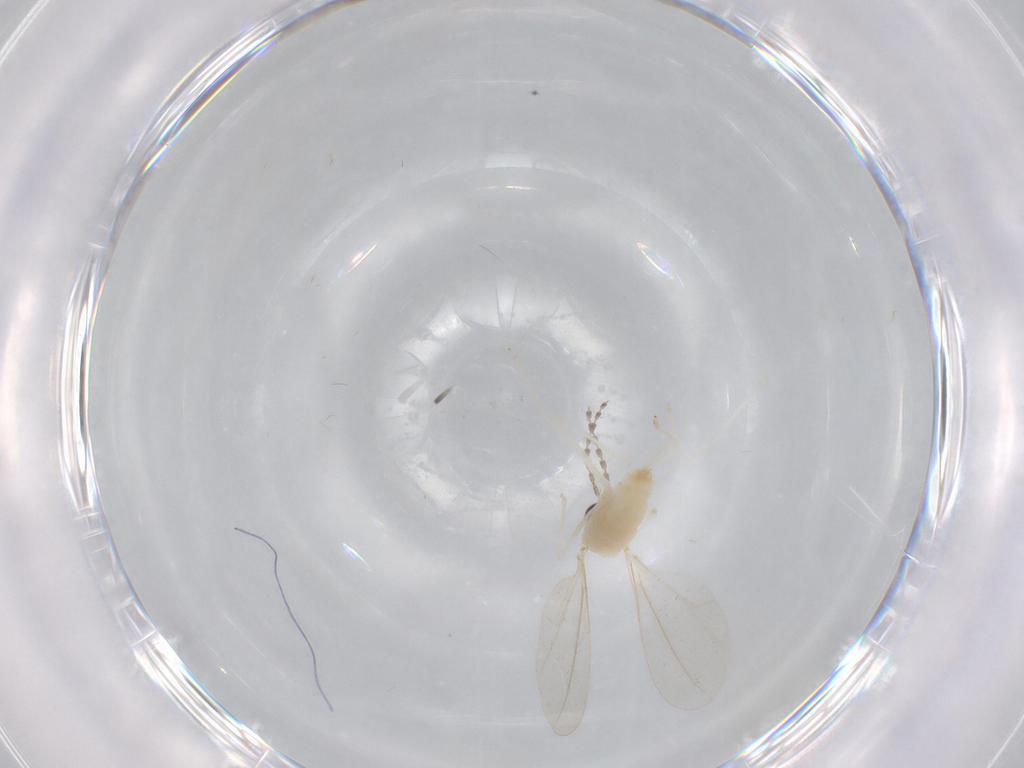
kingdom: Animalia
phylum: Arthropoda
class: Insecta
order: Diptera
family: Cecidomyiidae
